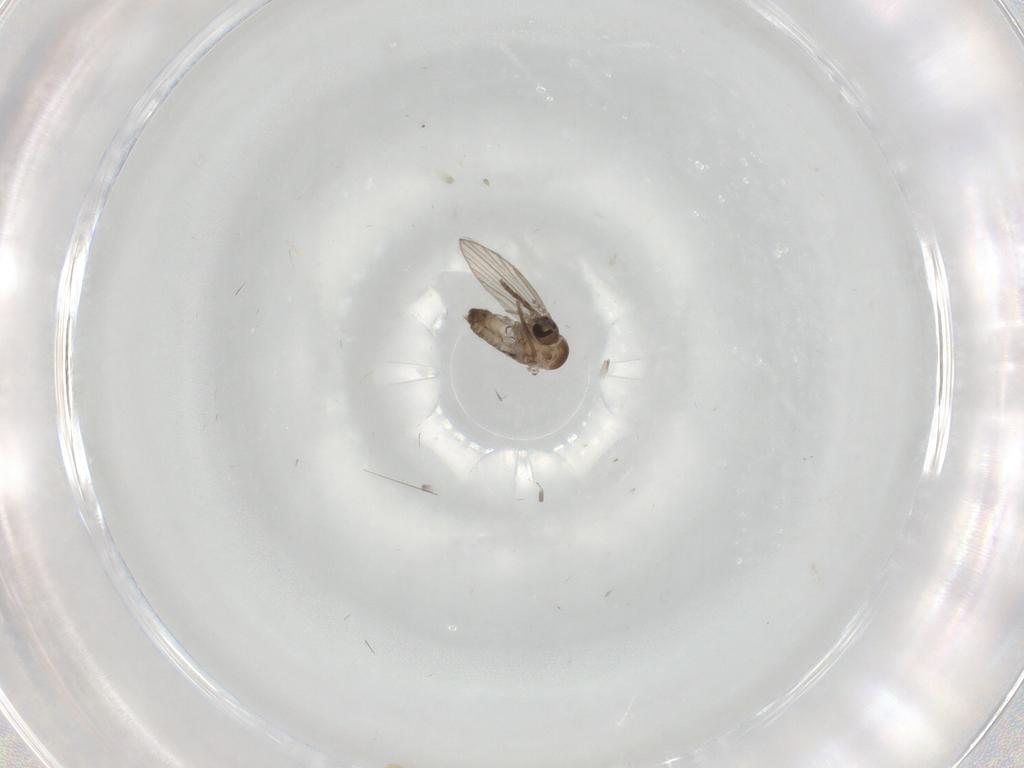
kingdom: Animalia
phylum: Arthropoda
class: Insecta
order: Diptera
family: Psychodidae
